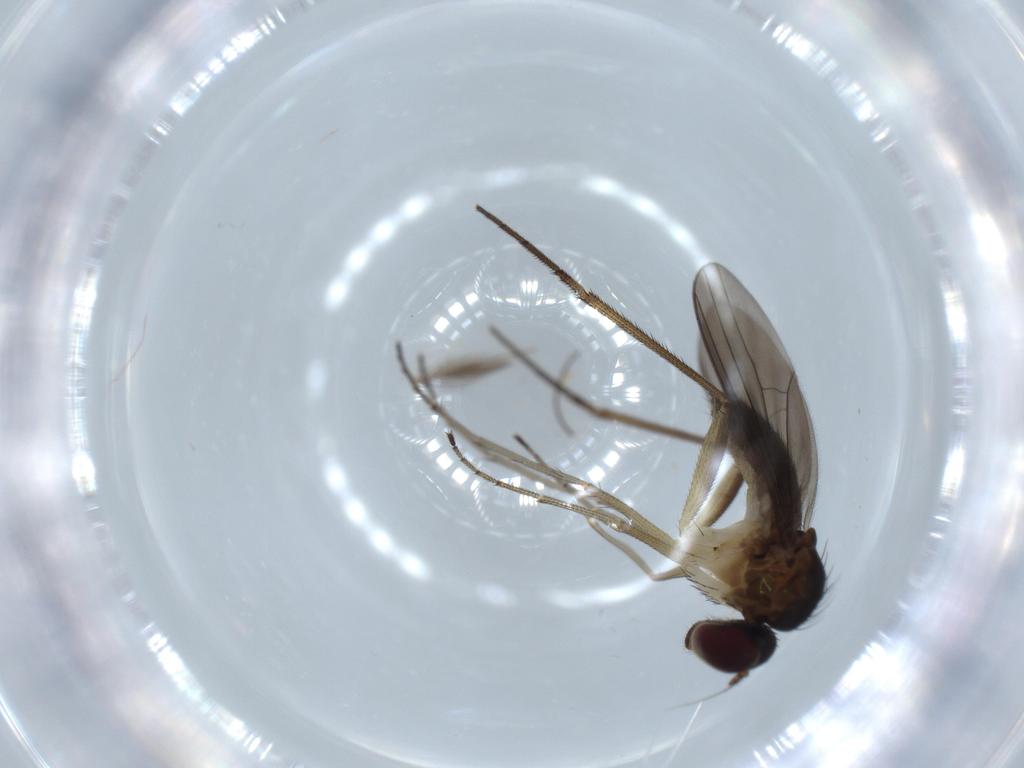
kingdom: Animalia
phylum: Arthropoda
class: Insecta
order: Diptera
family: Dolichopodidae
